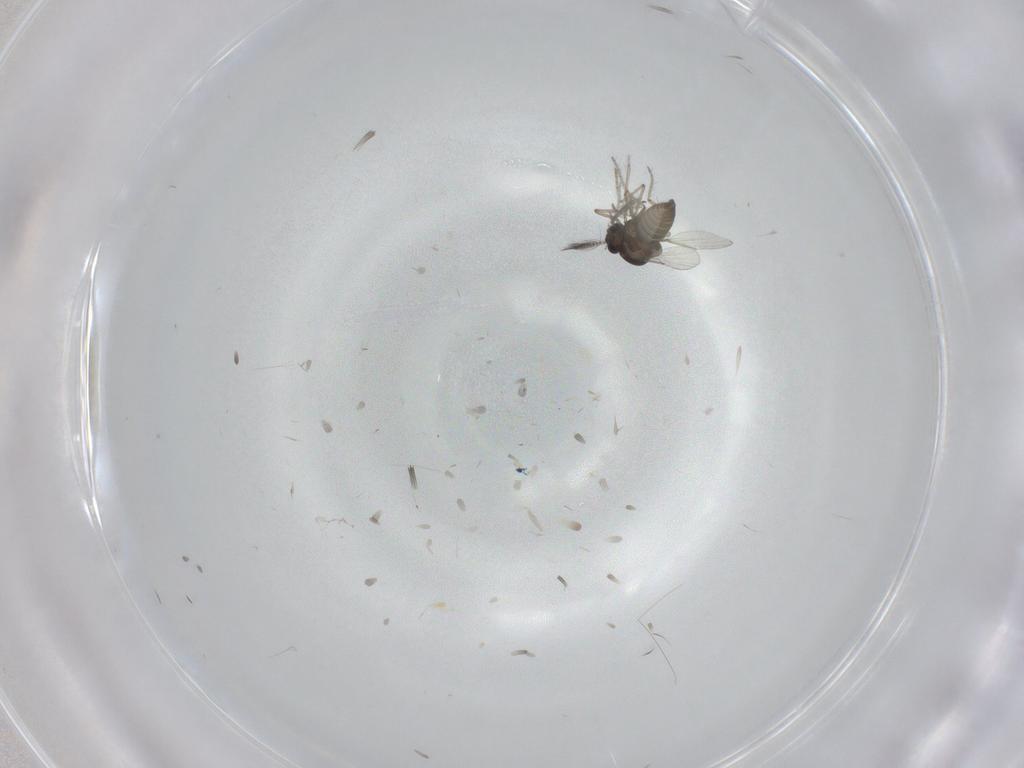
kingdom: Animalia
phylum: Arthropoda
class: Insecta
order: Diptera
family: Ceratopogonidae
